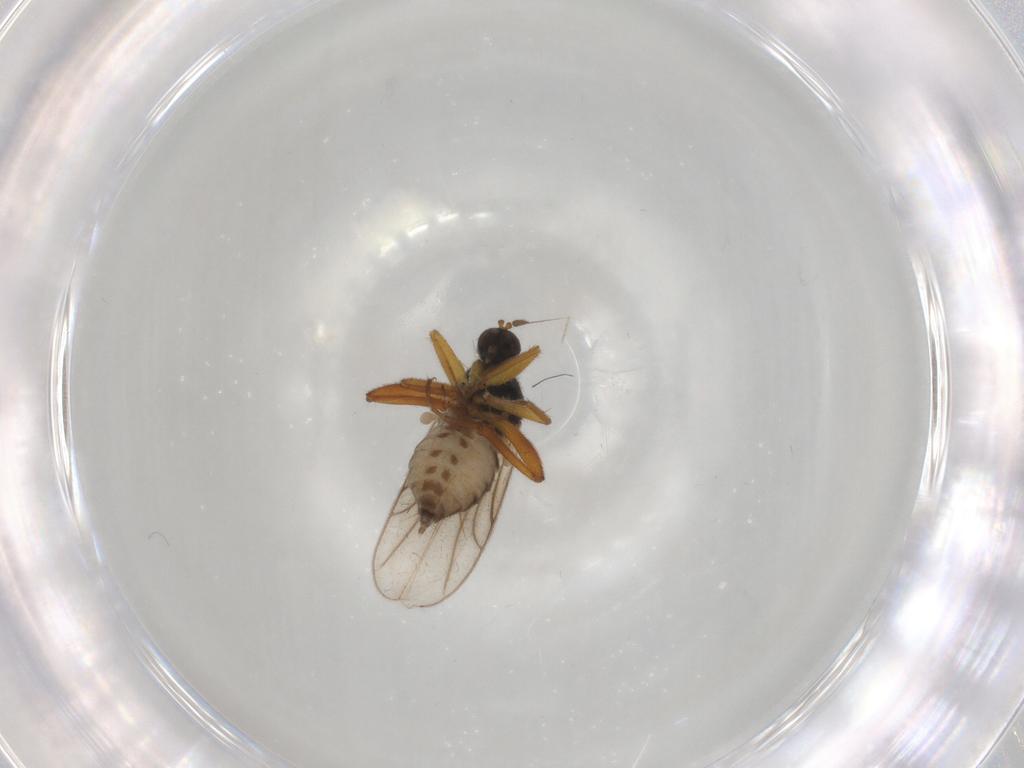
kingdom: Animalia
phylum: Arthropoda
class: Insecta
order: Diptera
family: Hybotidae
